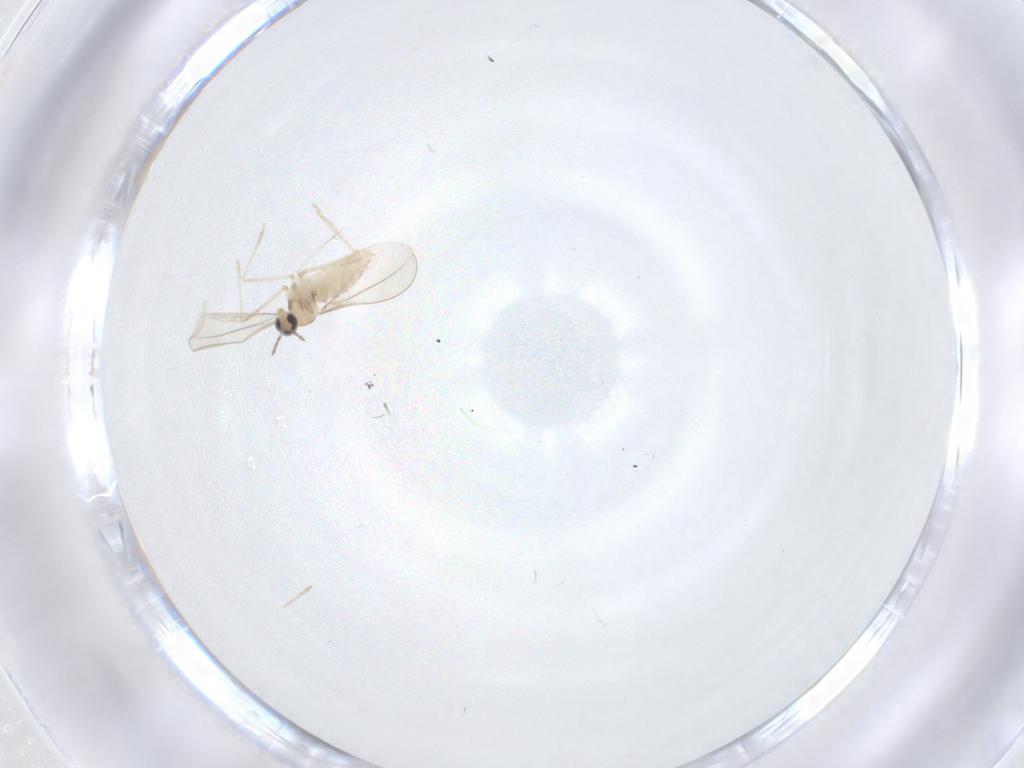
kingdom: Animalia
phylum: Arthropoda
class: Insecta
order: Diptera
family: Cecidomyiidae
